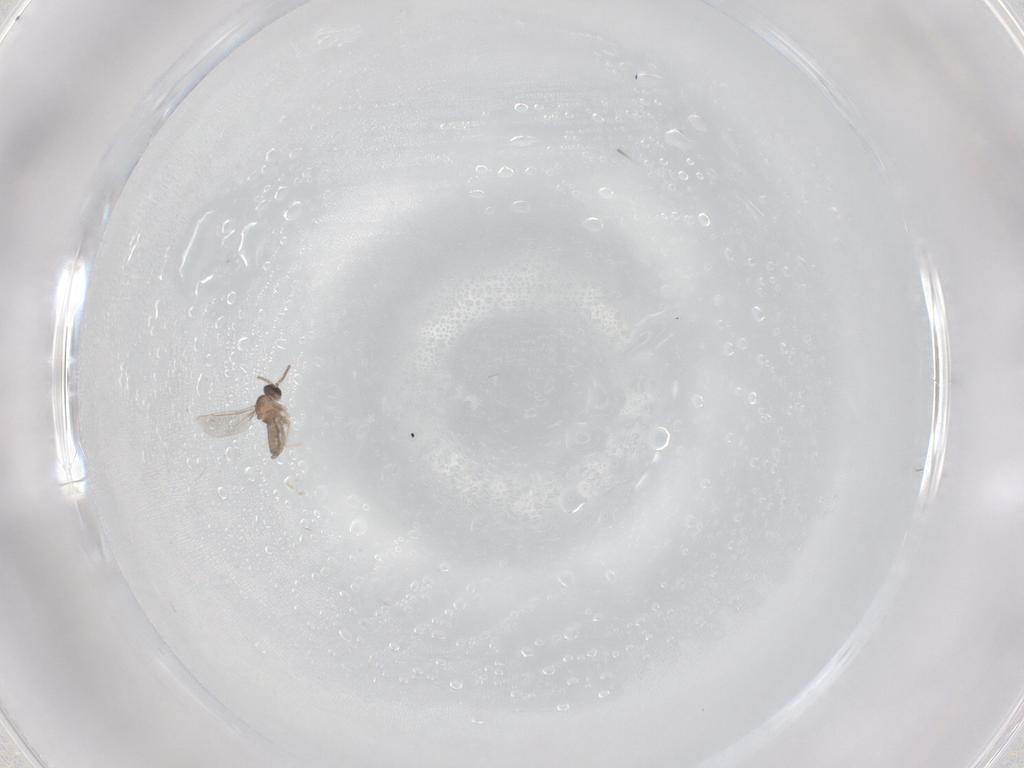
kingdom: Animalia
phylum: Arthropoda
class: Insecta
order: Diptera
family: Cecidomyiidae
